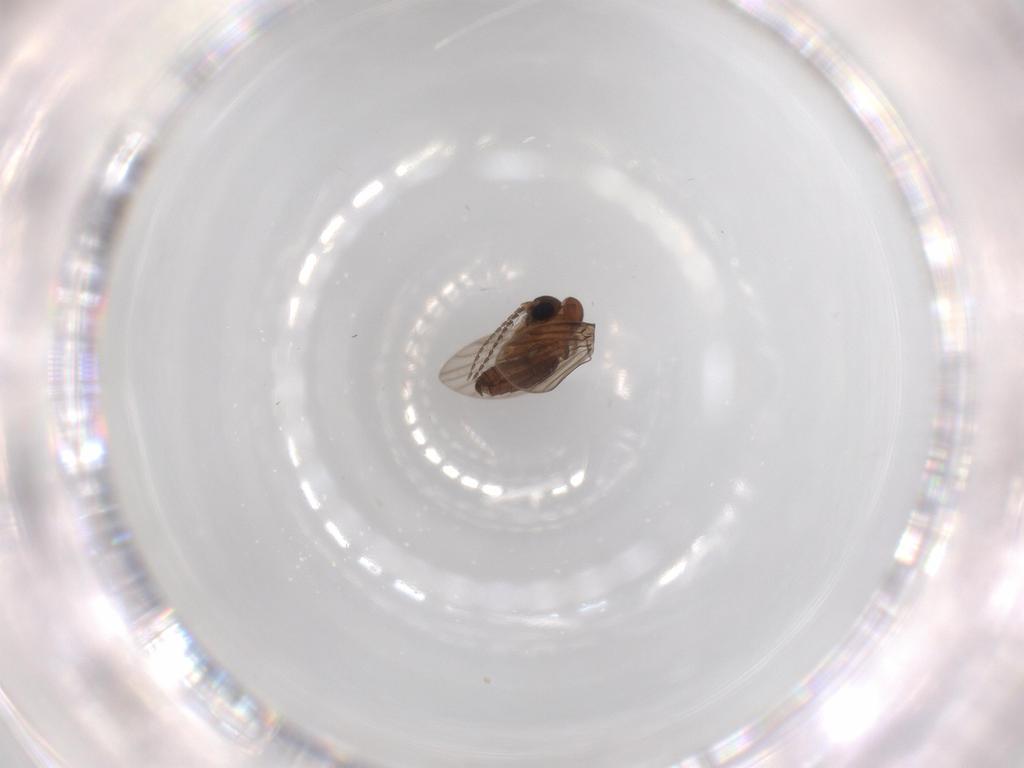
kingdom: Animalia
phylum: Arthropoda
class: Insecta
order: Diptera
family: Psychodidae
